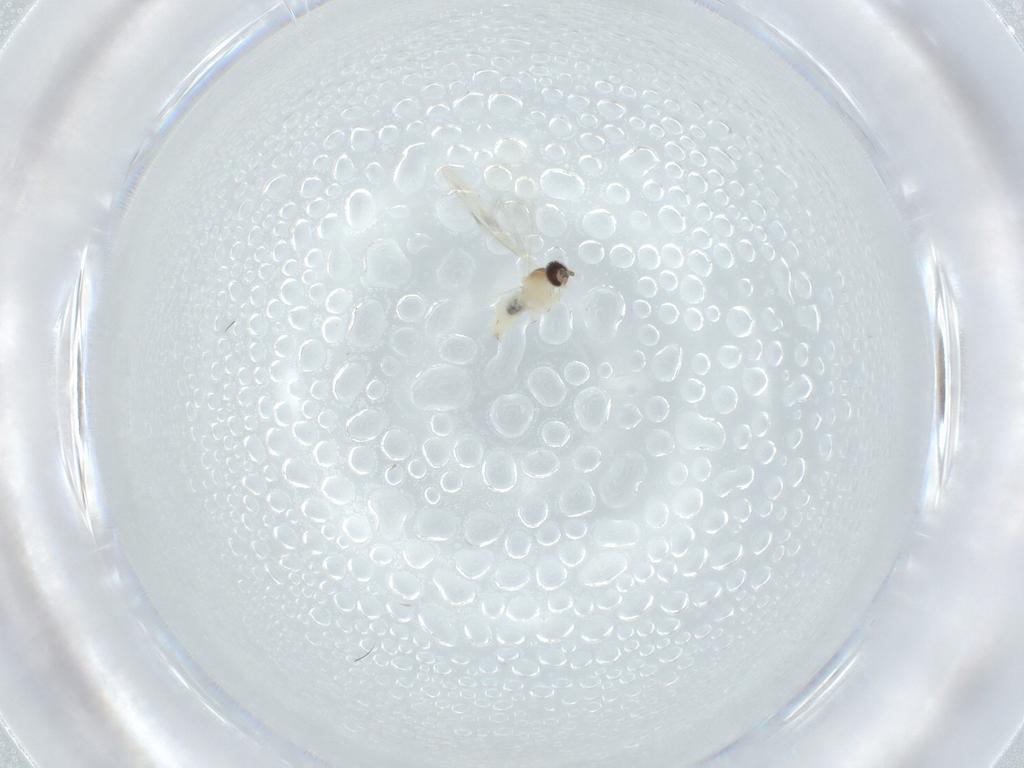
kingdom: Animalia
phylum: Arthropoda
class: Insecta
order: Diptera
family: Cecidomyiidae
